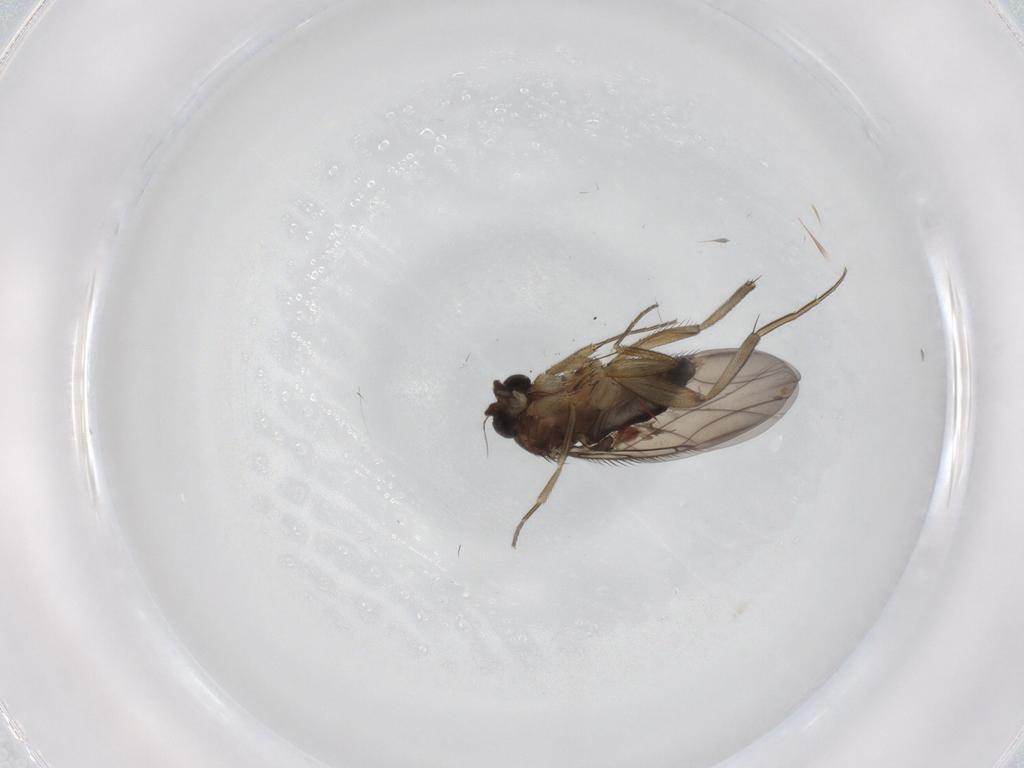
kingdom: Animalia
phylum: Arthropoda
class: Insecta
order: Diptera
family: Phoridae
